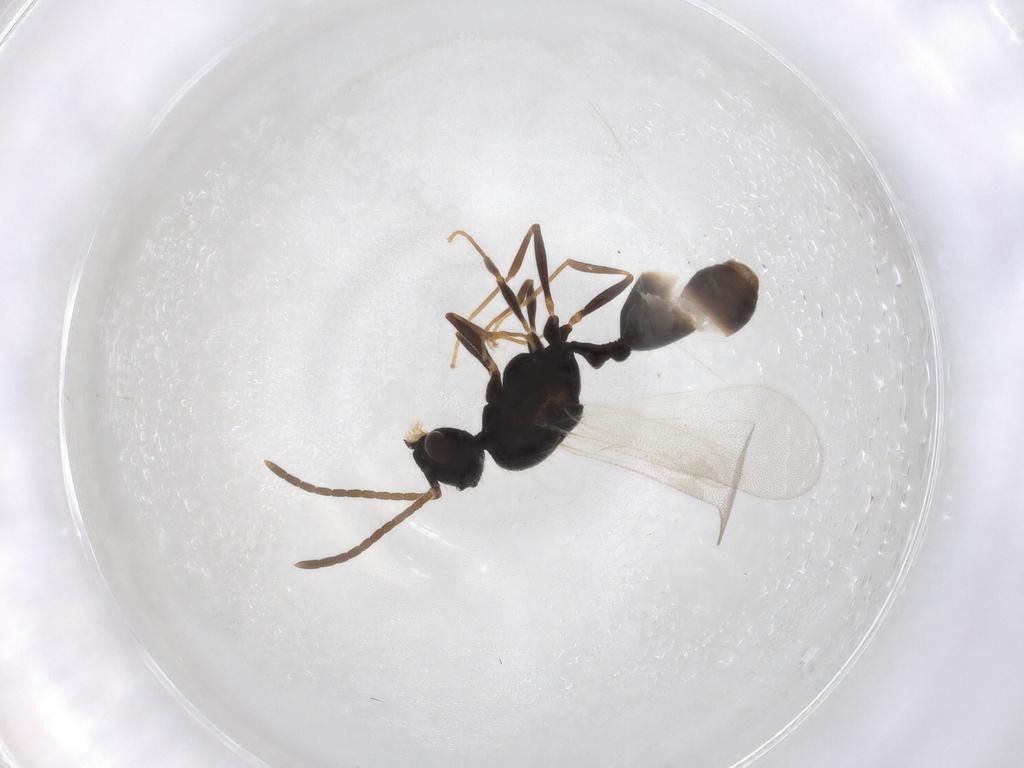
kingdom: Animalia
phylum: Arthropoda
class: Insecta
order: Hymenoptera
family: Formicidae
